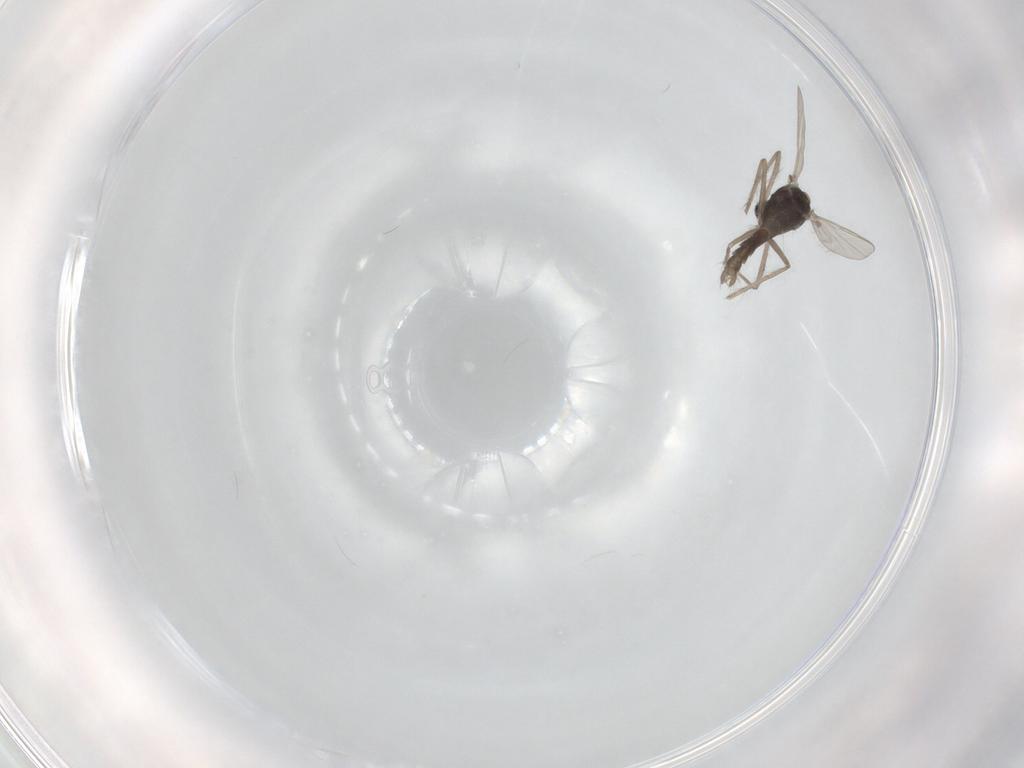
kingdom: Animalia
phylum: Arthropoda
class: Insecta
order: Diptera
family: Chironomidae
